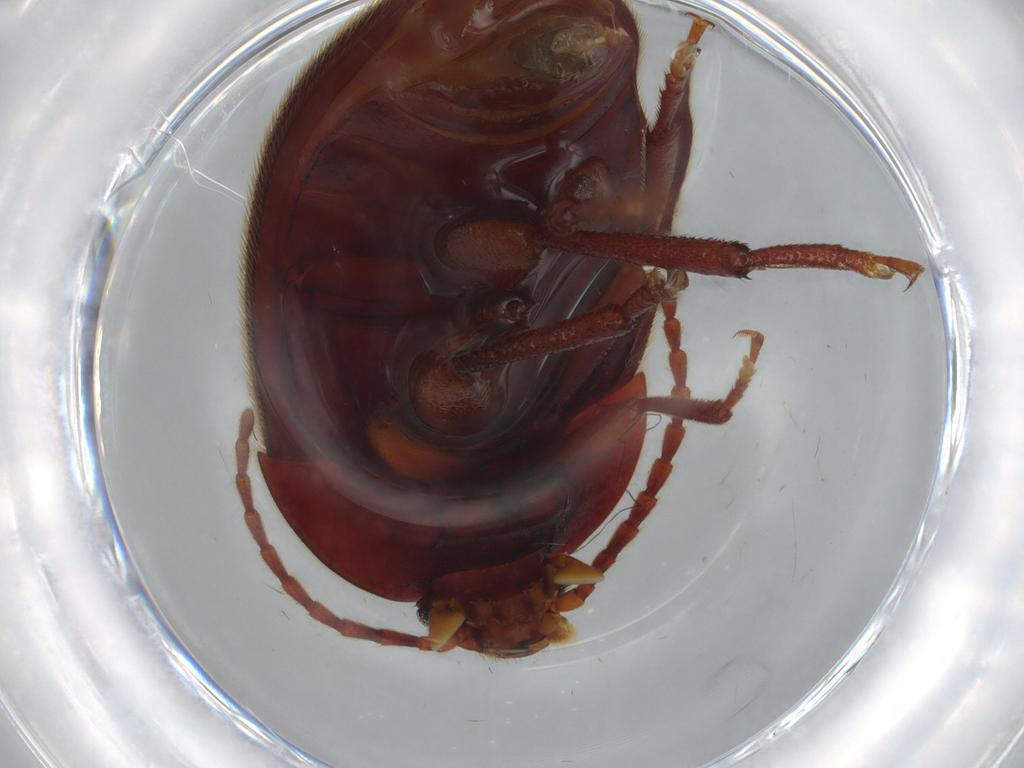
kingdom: Animalia
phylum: Arthropoda
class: Insecta
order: Coleoptera
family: Tenebrionidae
